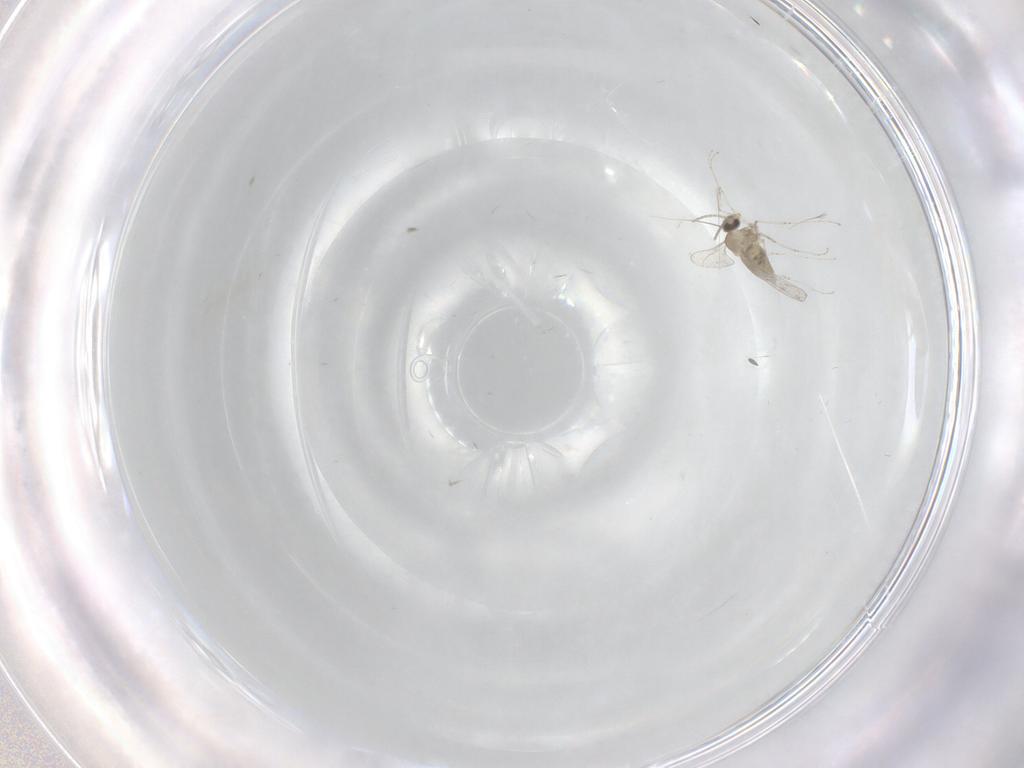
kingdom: Animalia
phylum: Arthropoda
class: Insecta
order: Diptera
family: Cecidomyiidae
